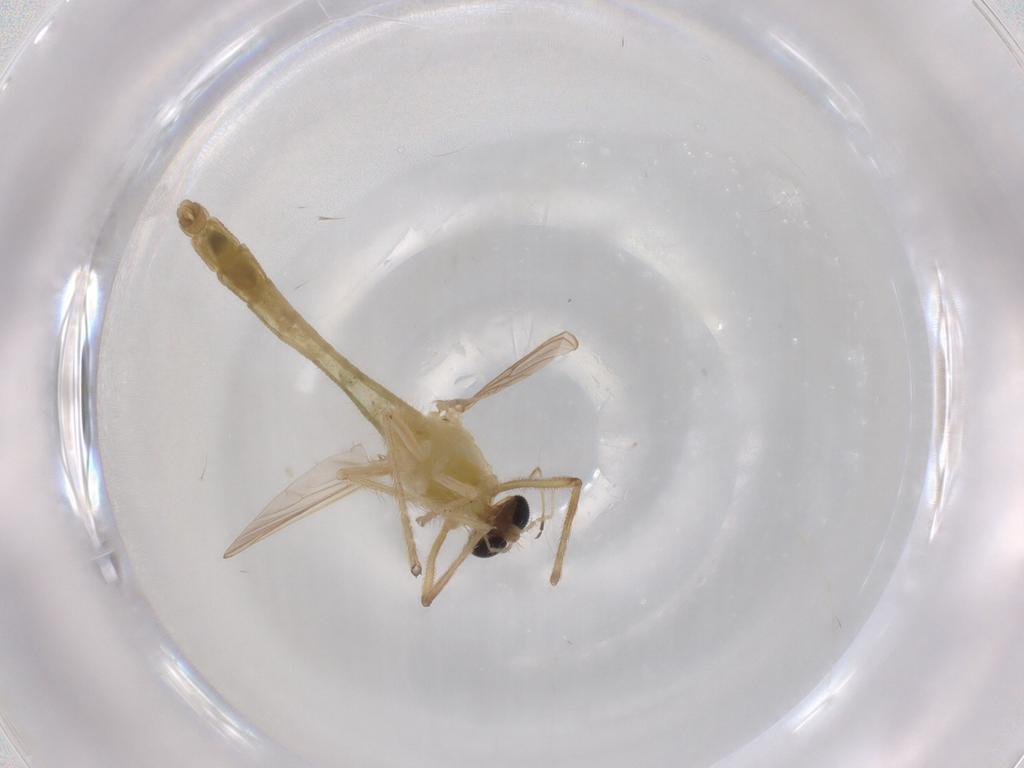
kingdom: Animalia
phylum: Arthropoda
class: Insecta
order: Diptera
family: Chironomidae
